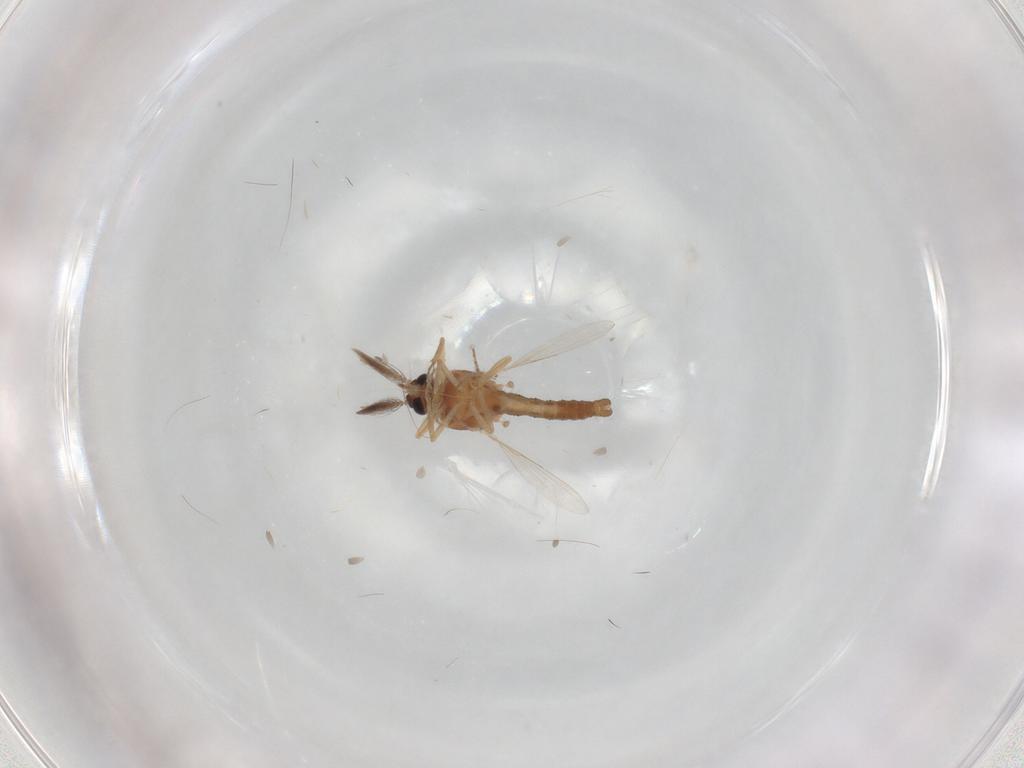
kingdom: Animalia
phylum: Arthropoda
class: Insecta
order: Diptera
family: Ceratopogonidae
